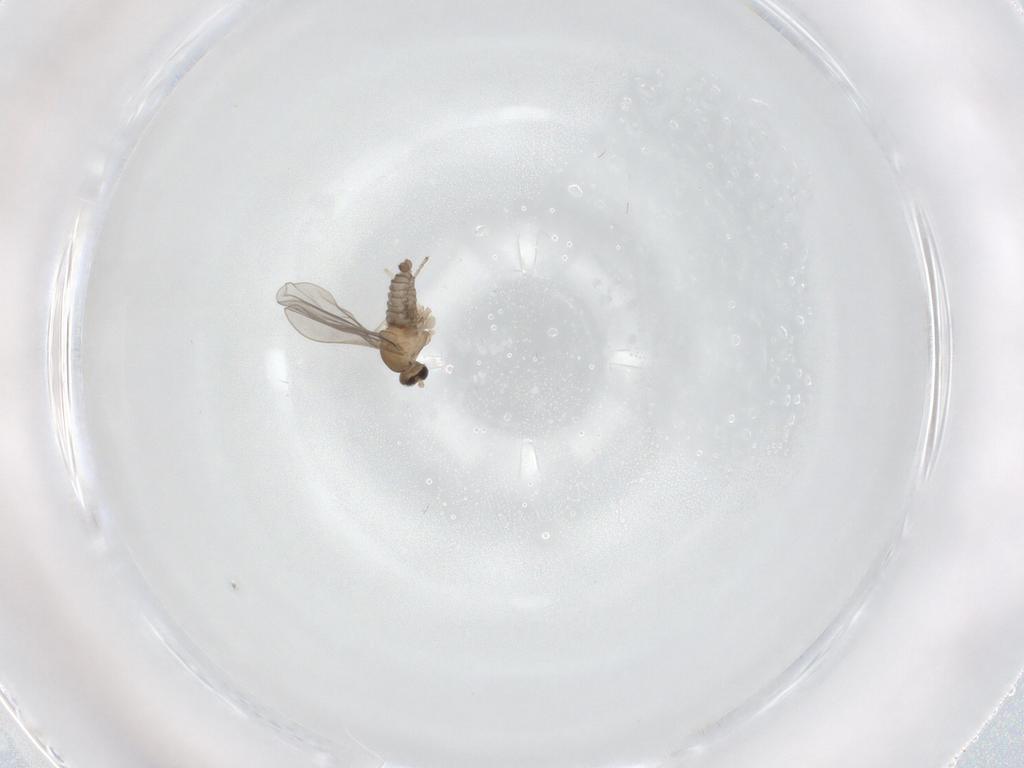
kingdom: Animalia
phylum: Arthropoda
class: Insecta
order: Diptera
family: Cecidomyiidae
